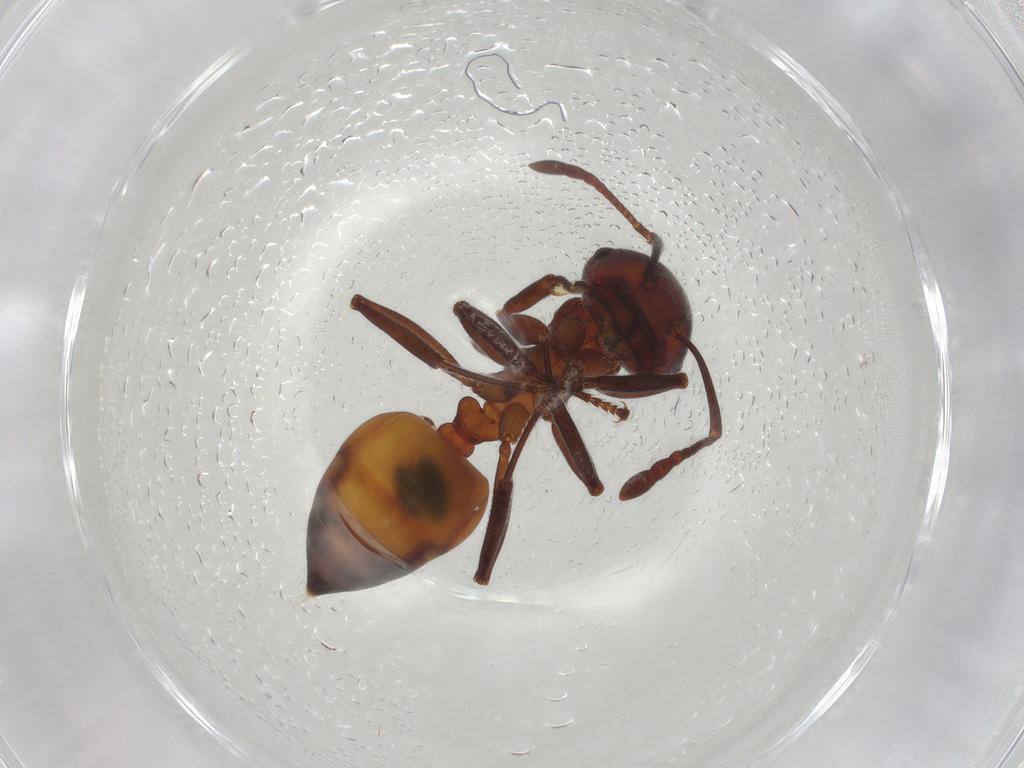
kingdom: Animalia
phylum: Arthropoda
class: Insecta
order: Hymenoptera
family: Formicidae
